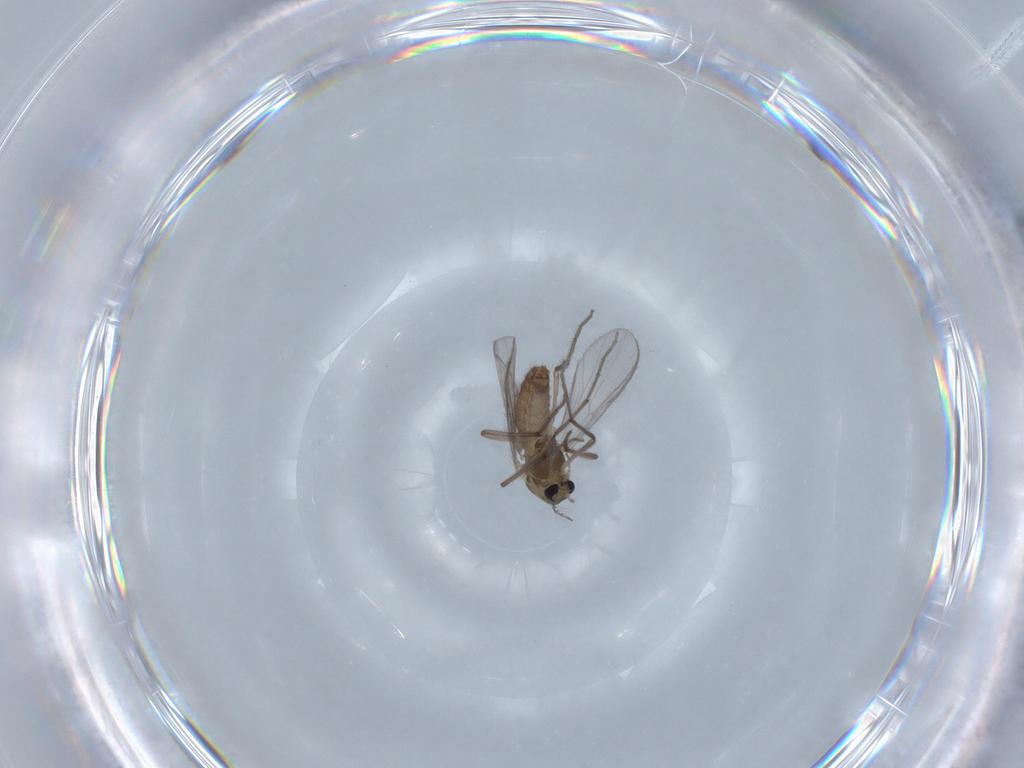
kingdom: Animalia
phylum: Arthropoda
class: Insecta
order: Diptera
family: Chironomidae
